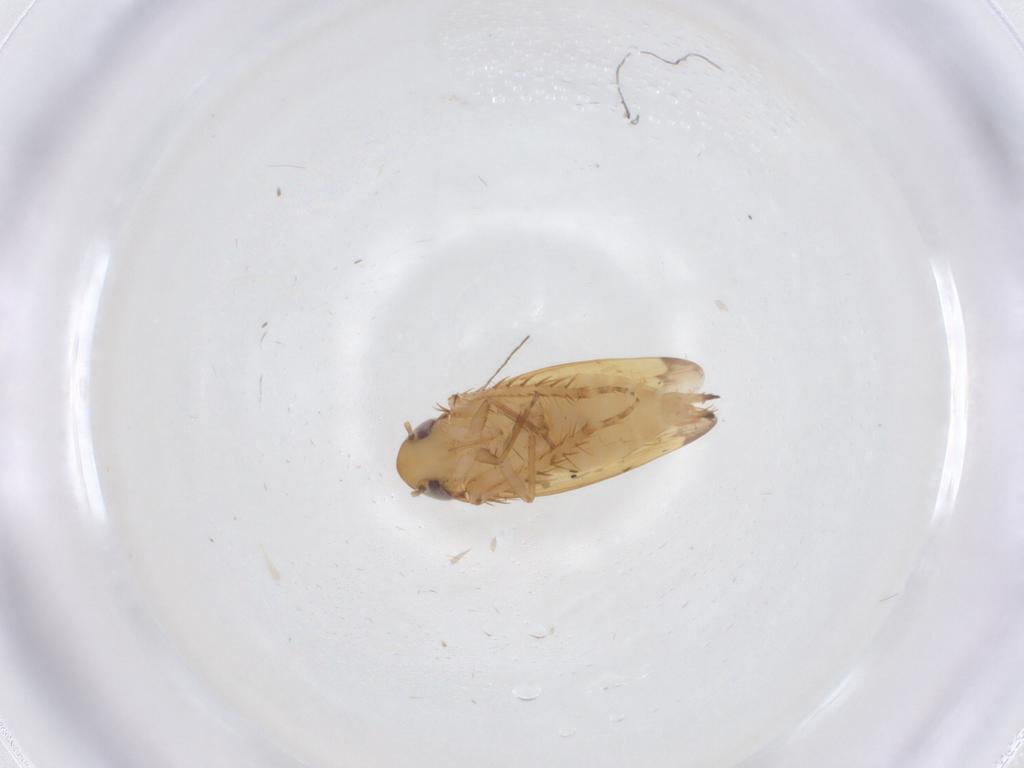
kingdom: Animalia
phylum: Arthropoda
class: Insecta
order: Hemiptera
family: Cicadellidae
